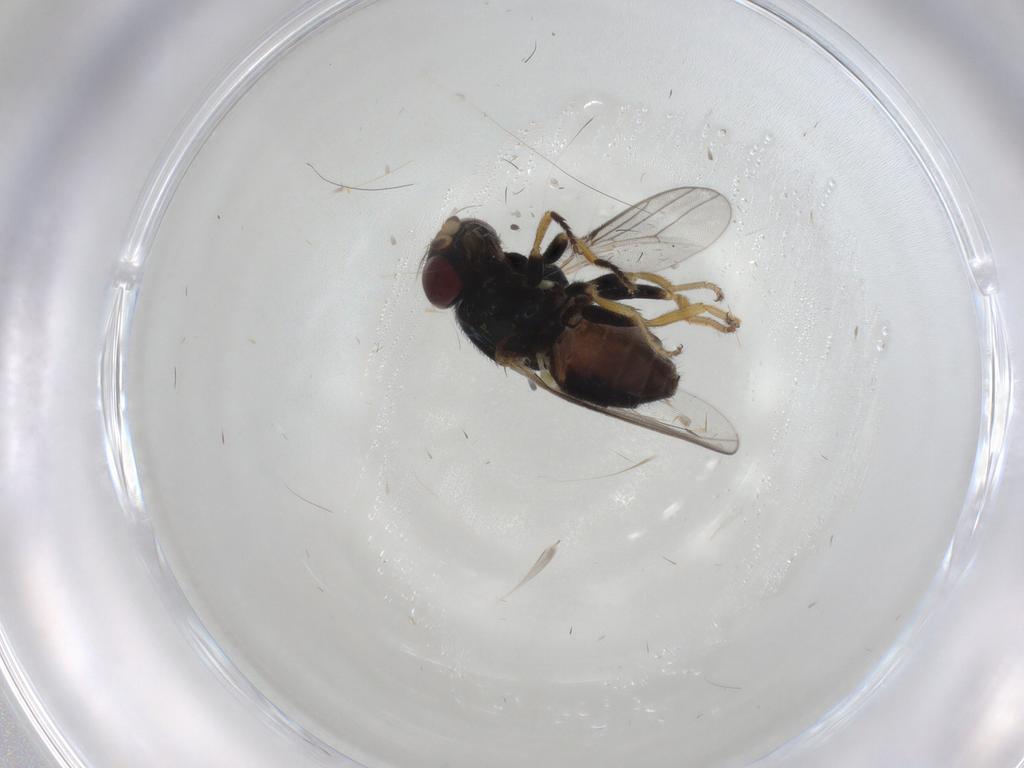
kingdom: Animalia
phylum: Arthropoda
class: Insecta
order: Diptera
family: Chloropidae
